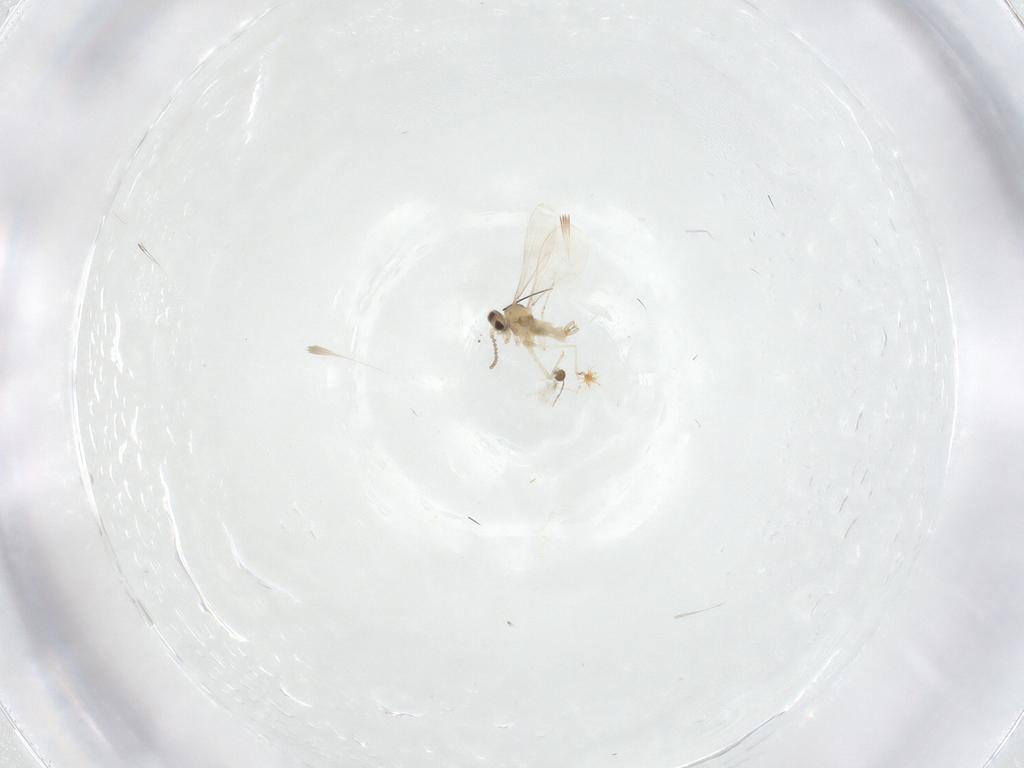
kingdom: Animalia
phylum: Arthropoda
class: Insecta
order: Diptera
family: Phoridae
